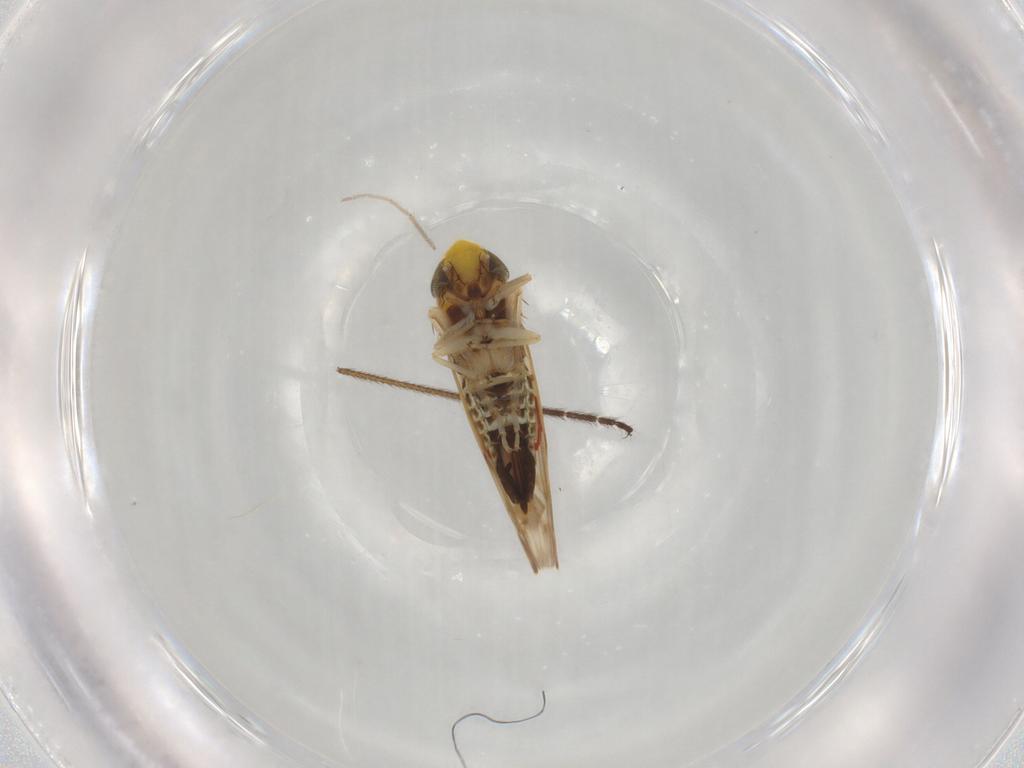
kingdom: Animalia
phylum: Arthropoda
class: Insecta
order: Hemiptera
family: Cicadellidae
